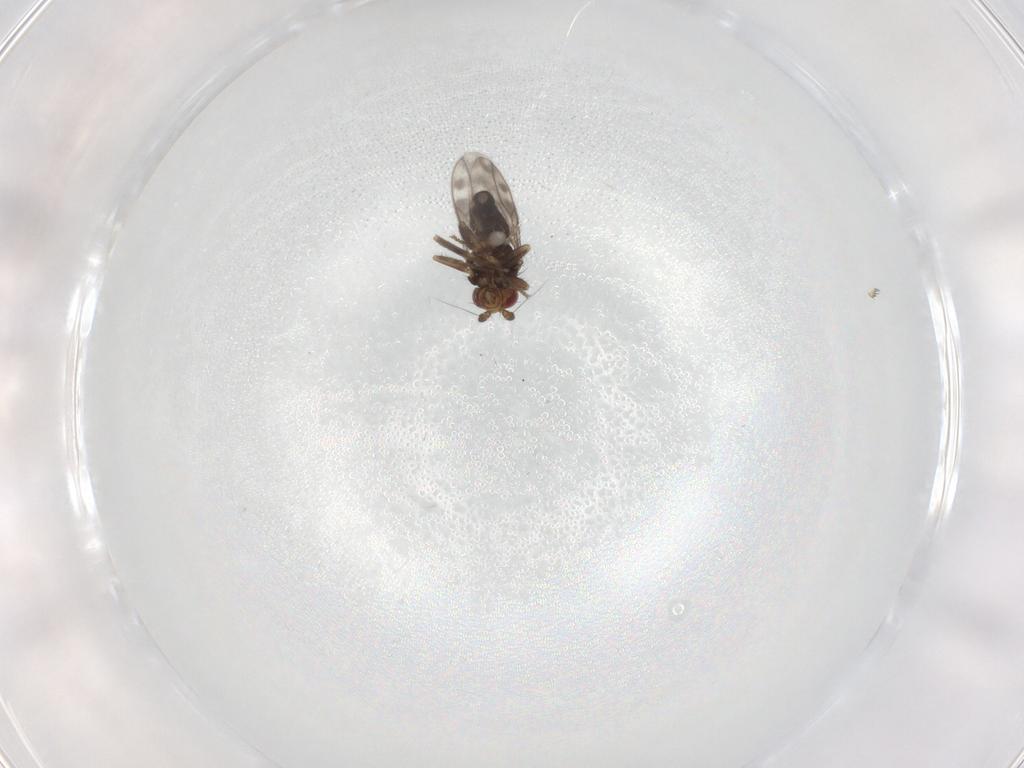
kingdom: Animalia
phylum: Arthropoda
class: Insecta
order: Diptera
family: Sphaeroceridae
